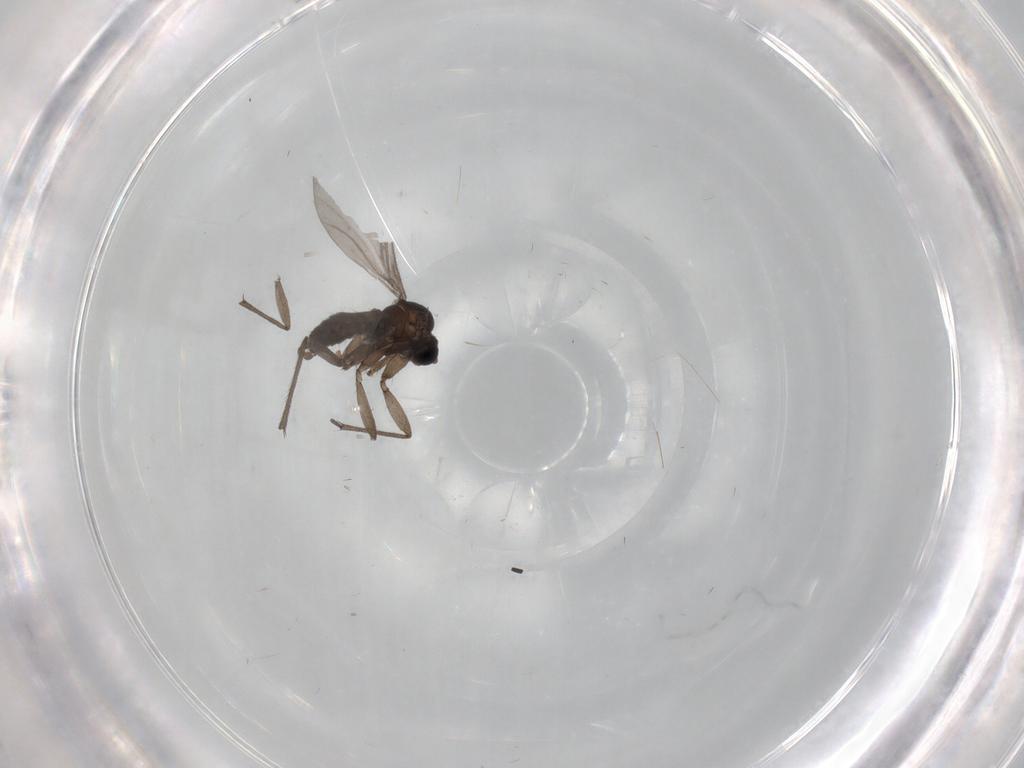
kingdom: Animalia
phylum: Arthropoda
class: Insecta
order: Diptera
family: Sciaridae
